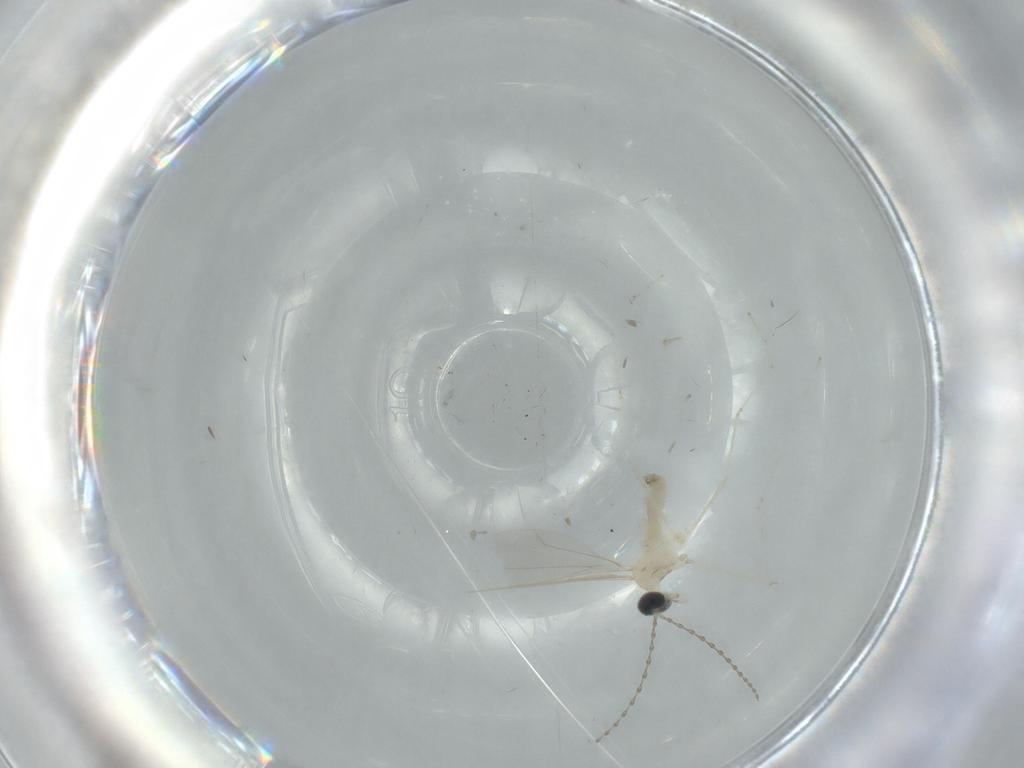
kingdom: Animalia
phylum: Arthropoda
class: Insecta
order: Diptera
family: Cecidomyiidae
